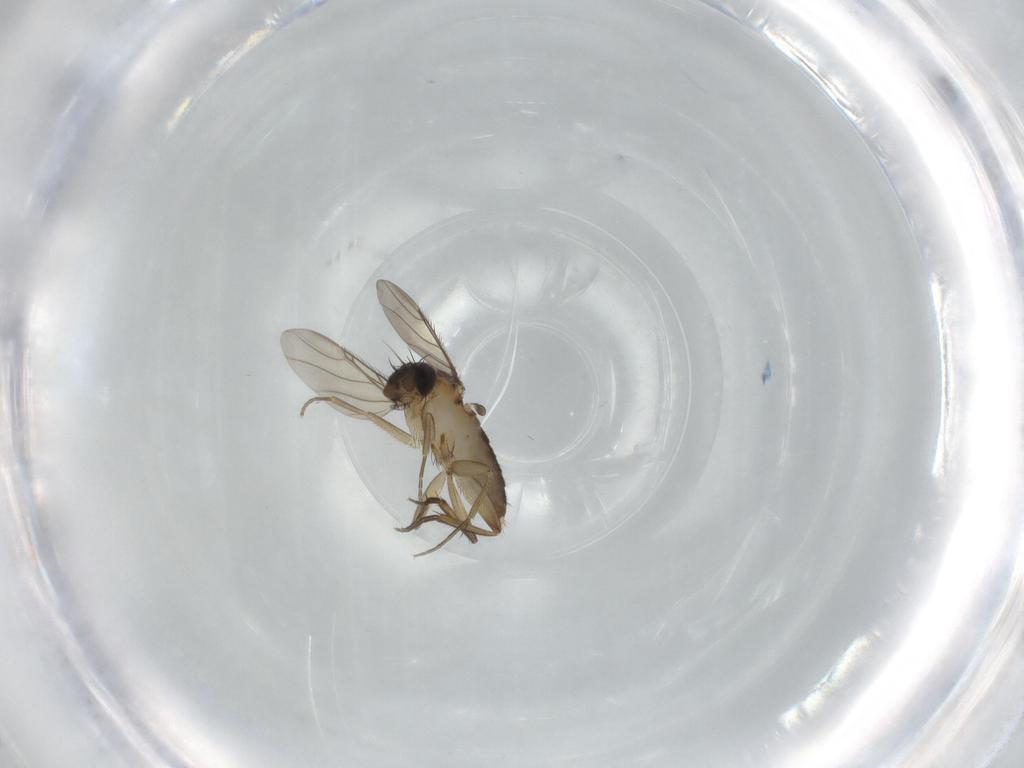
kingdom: Animalia
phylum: Arthropoda
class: Insecta
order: Diptera
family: Phoridae
